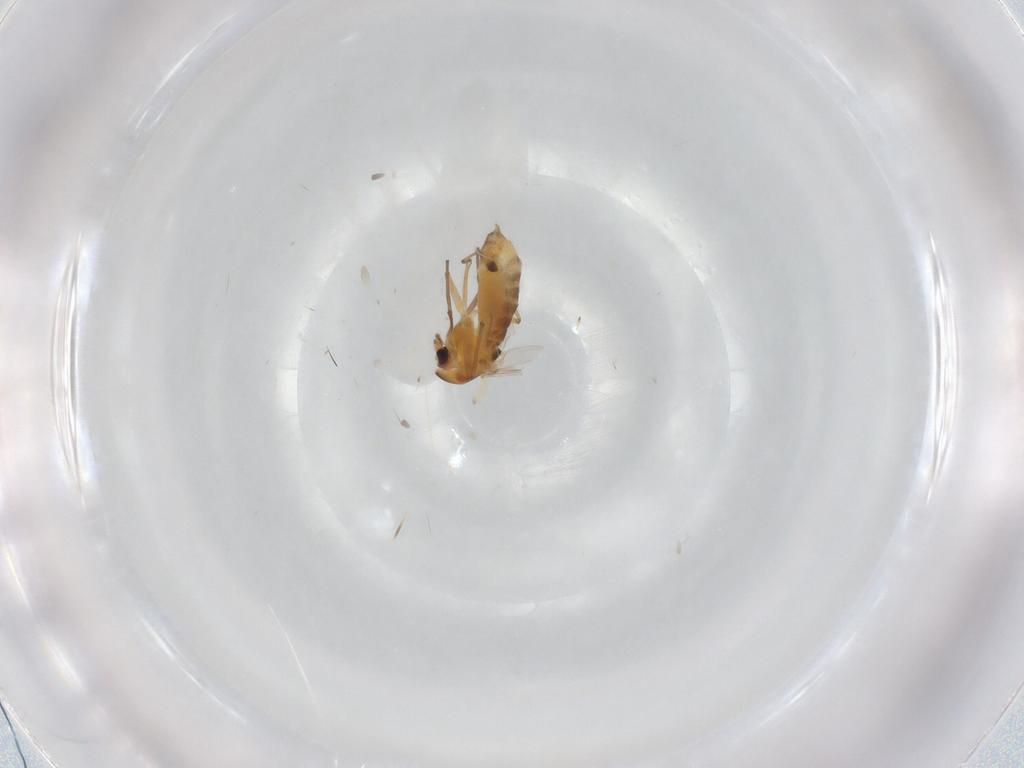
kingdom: Animalia
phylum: Arthropoda
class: Insecta
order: Diptera
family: Chironomidae
